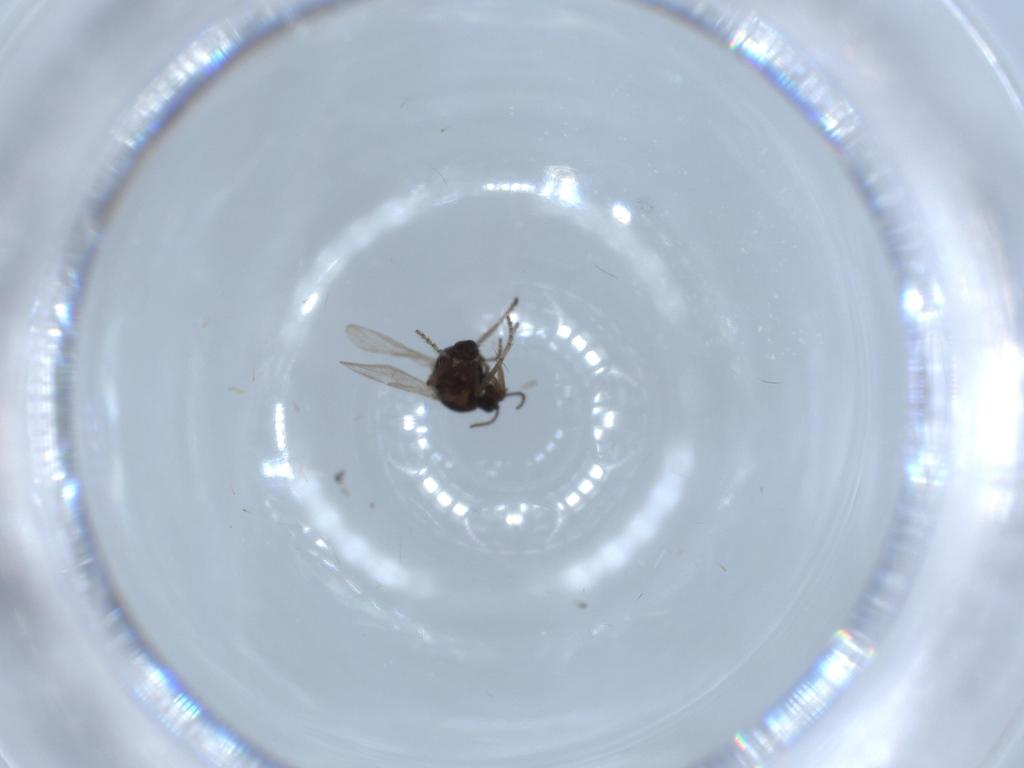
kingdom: Animalia
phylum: Arthropoda
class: Insecta
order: Diptera
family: Ceratopogonidae
